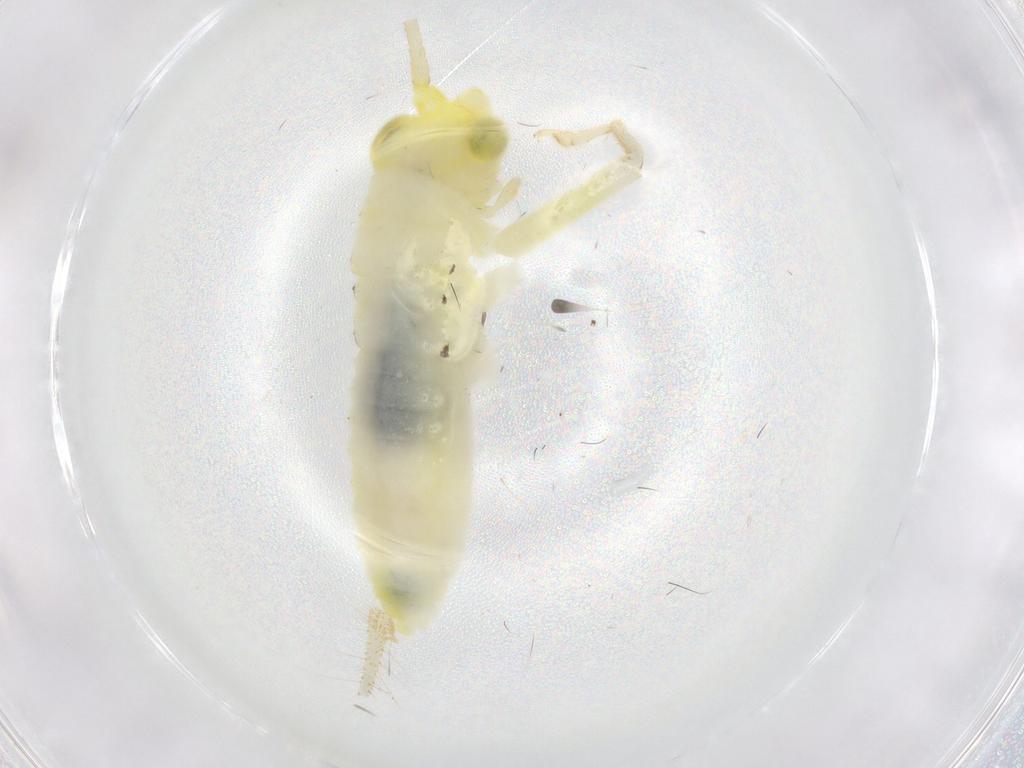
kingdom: Animalia
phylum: Arthropoda
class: Insecta
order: Orthoptera
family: Trigonidiidae
